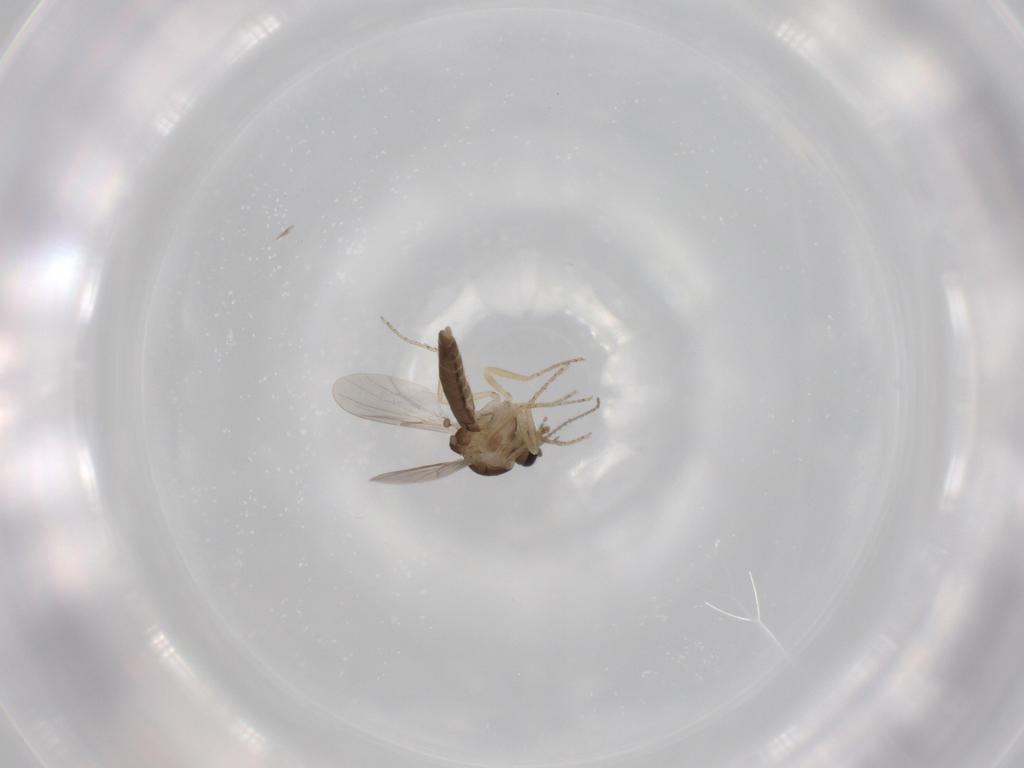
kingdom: Animalia
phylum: Arthropoda
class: Insecta
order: Diptera
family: Ceratopogonidae
